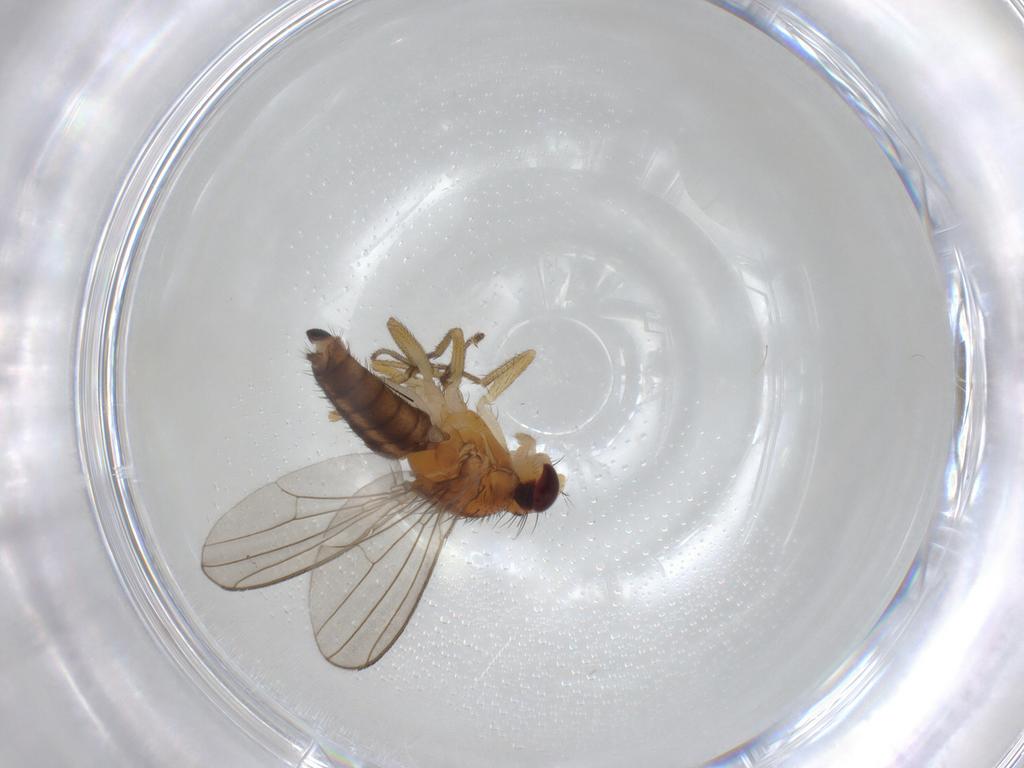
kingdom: Animalia
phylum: Arthropoda
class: Insecta
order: Diptera
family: Drosophilidae
